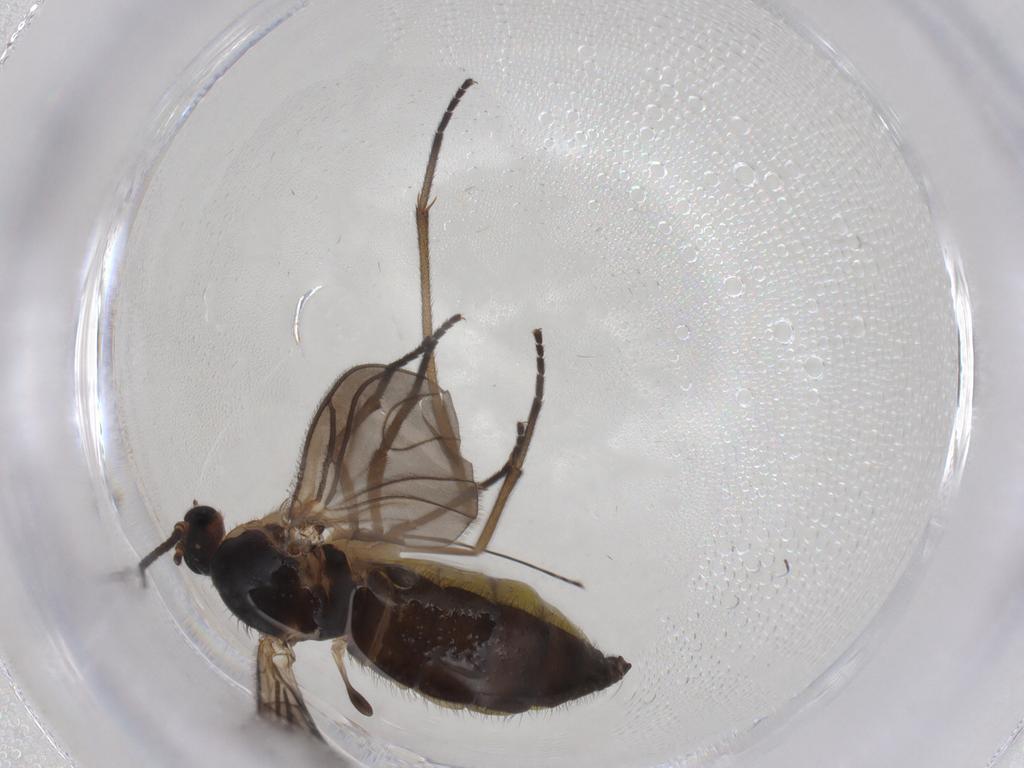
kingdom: Animalia
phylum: Arthropoda
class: Insecta
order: Diptera
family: Sciaridae
